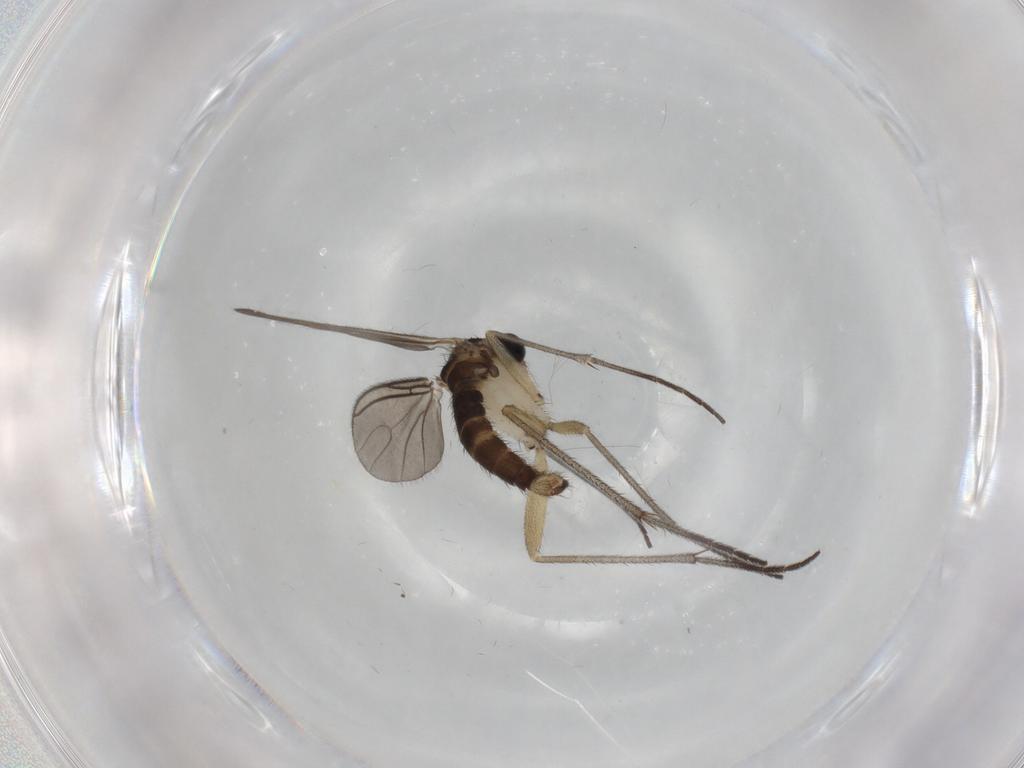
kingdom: Animalia
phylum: Arthropoda
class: Insecta
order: Diptera
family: Sciaridae
